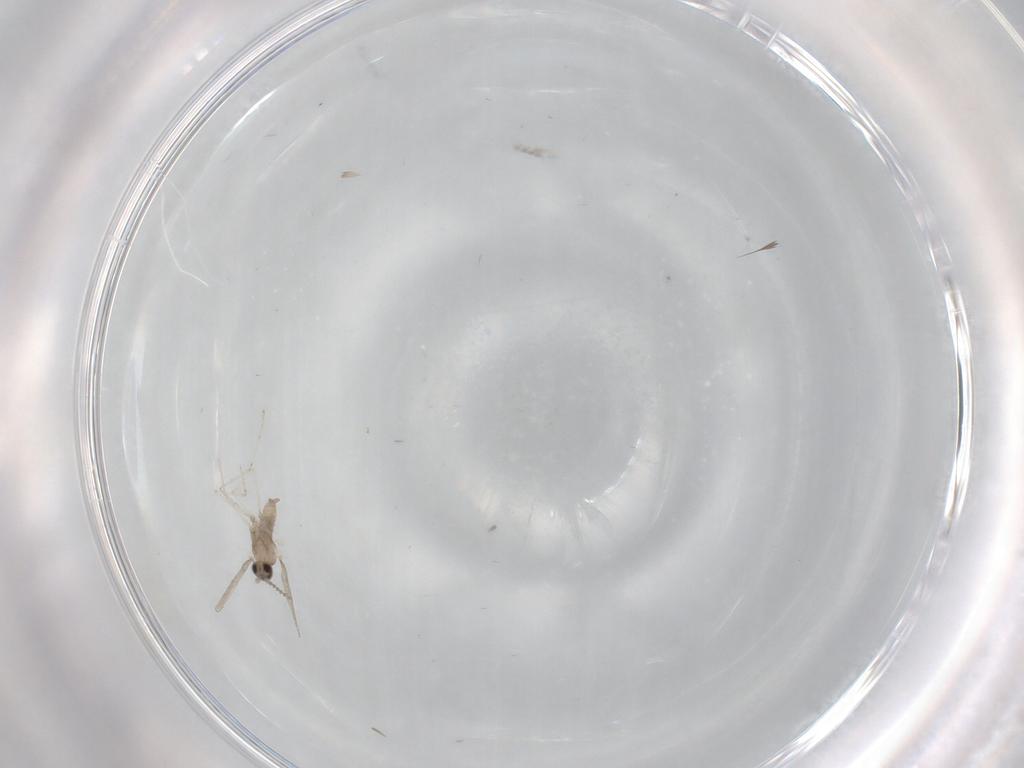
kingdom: Animalia
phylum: Arthropoda
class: Insecta
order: Diptera
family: Cecidomyiidae
